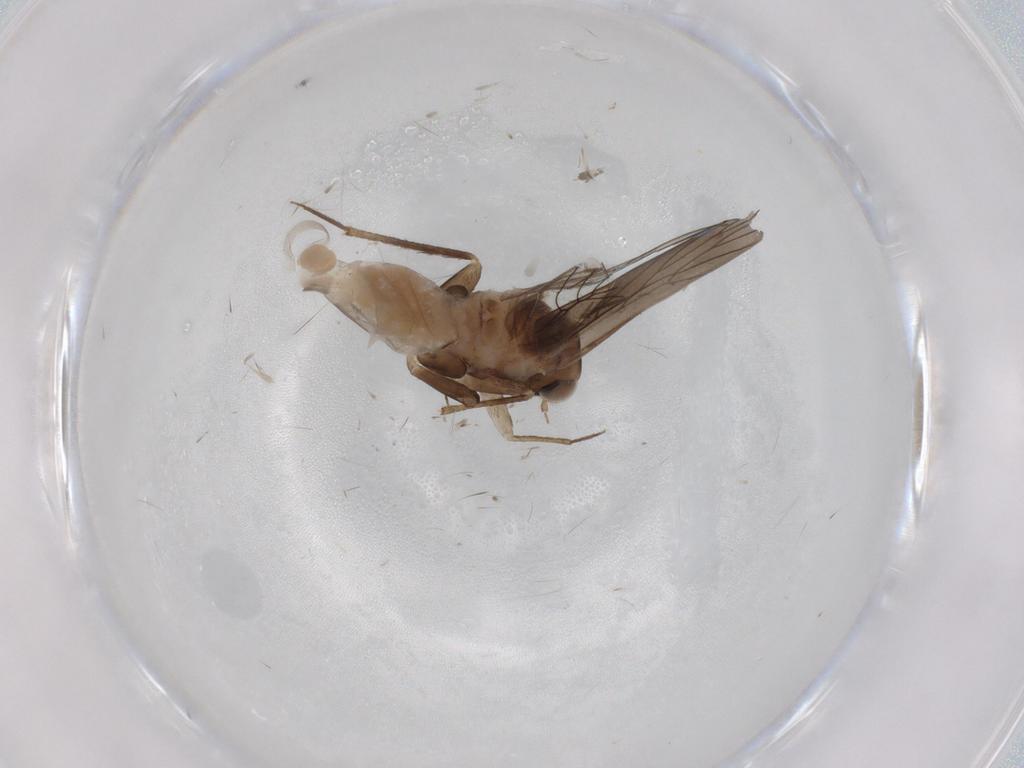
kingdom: Animalia
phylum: Arthropoda
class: Insecta
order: Psocodea
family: Lepidopsocidae
